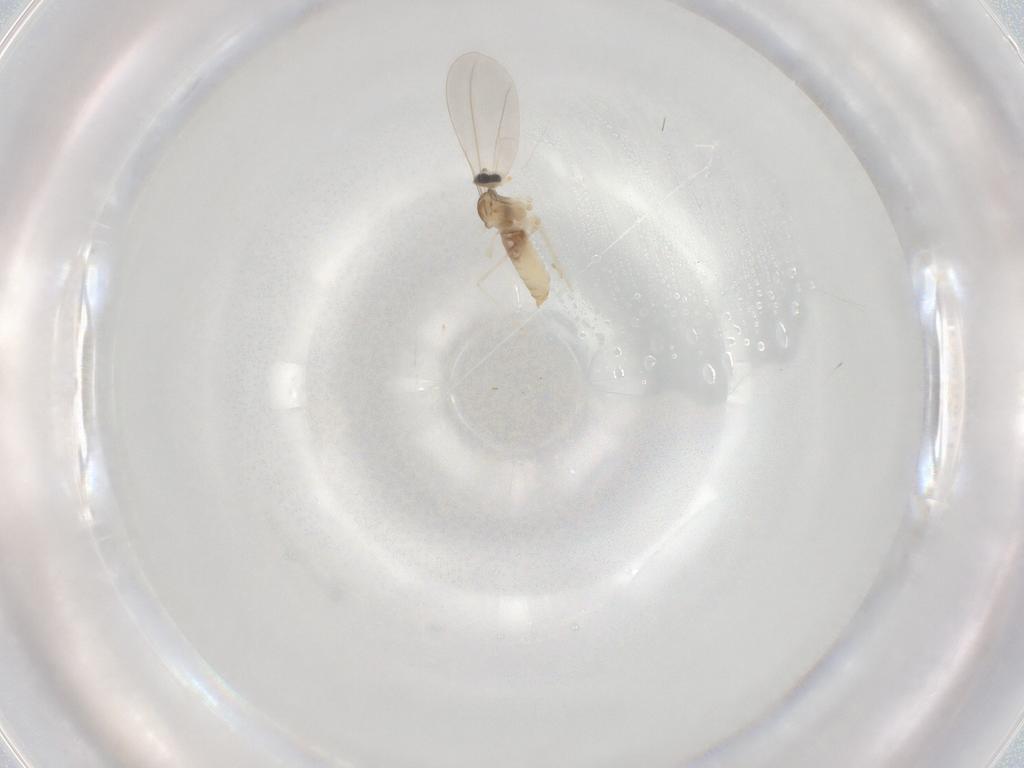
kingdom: Animalia
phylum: Arthropoda
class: Insecta
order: Diptera
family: Cecidomyiidae
